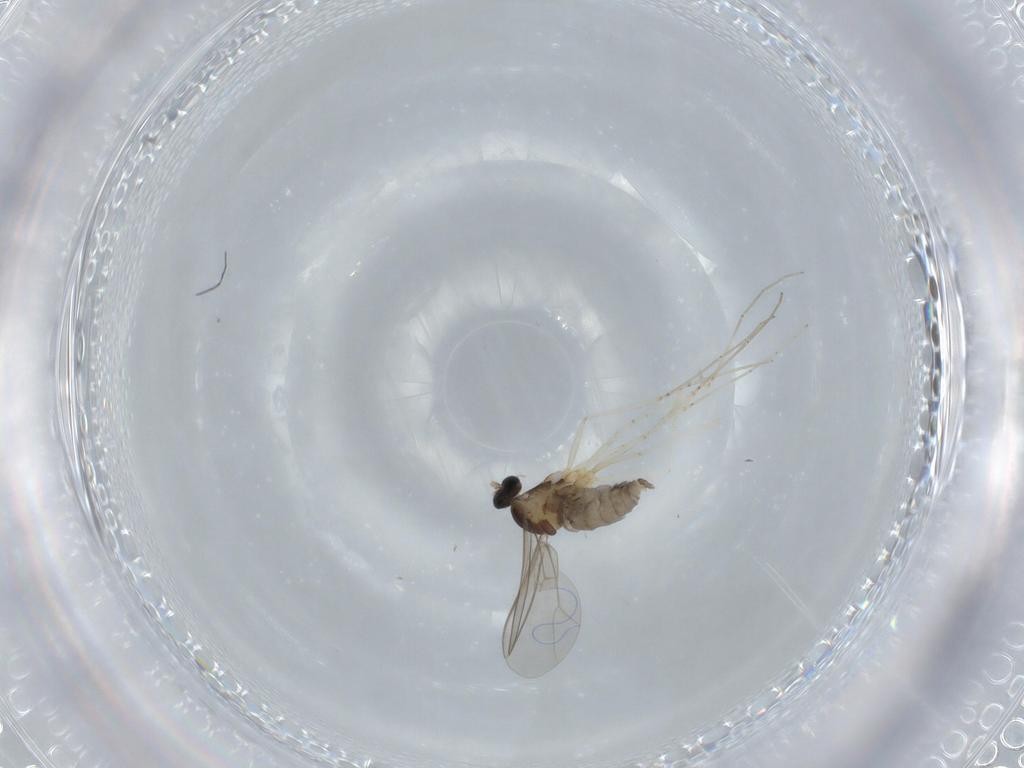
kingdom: Animalia
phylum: Arthropoda
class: Insecta
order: Diptera
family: Cecidomyiidae
